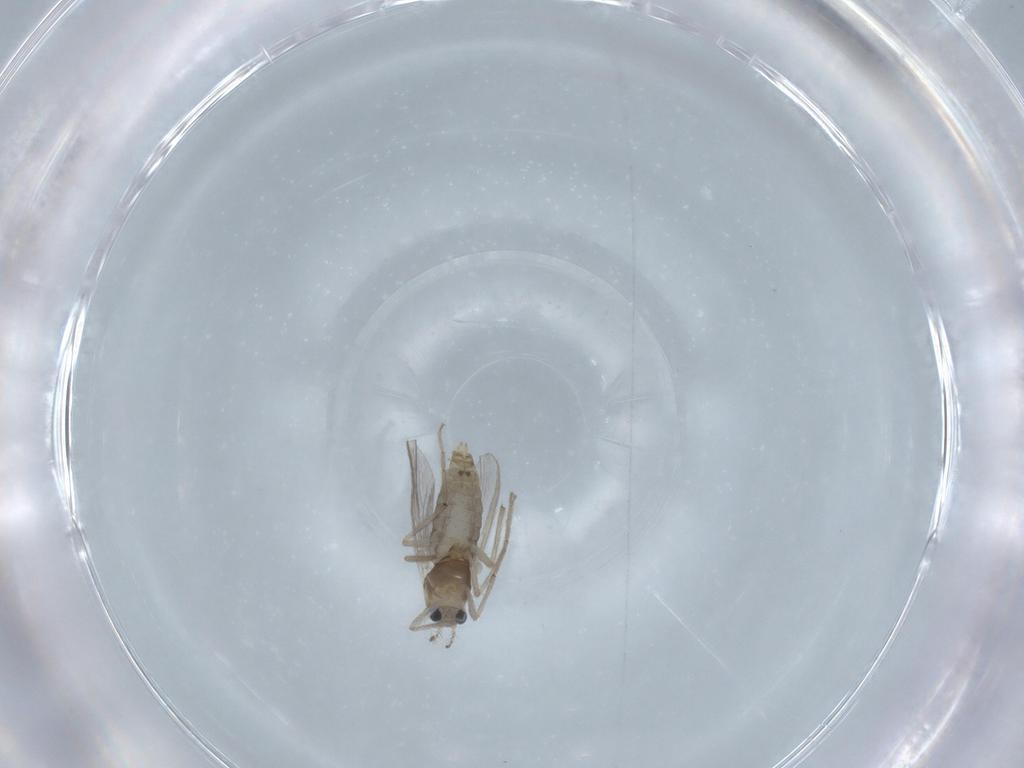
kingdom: Animalia
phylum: Arthropoda
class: Insecta
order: Diptera
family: Chironomidae
